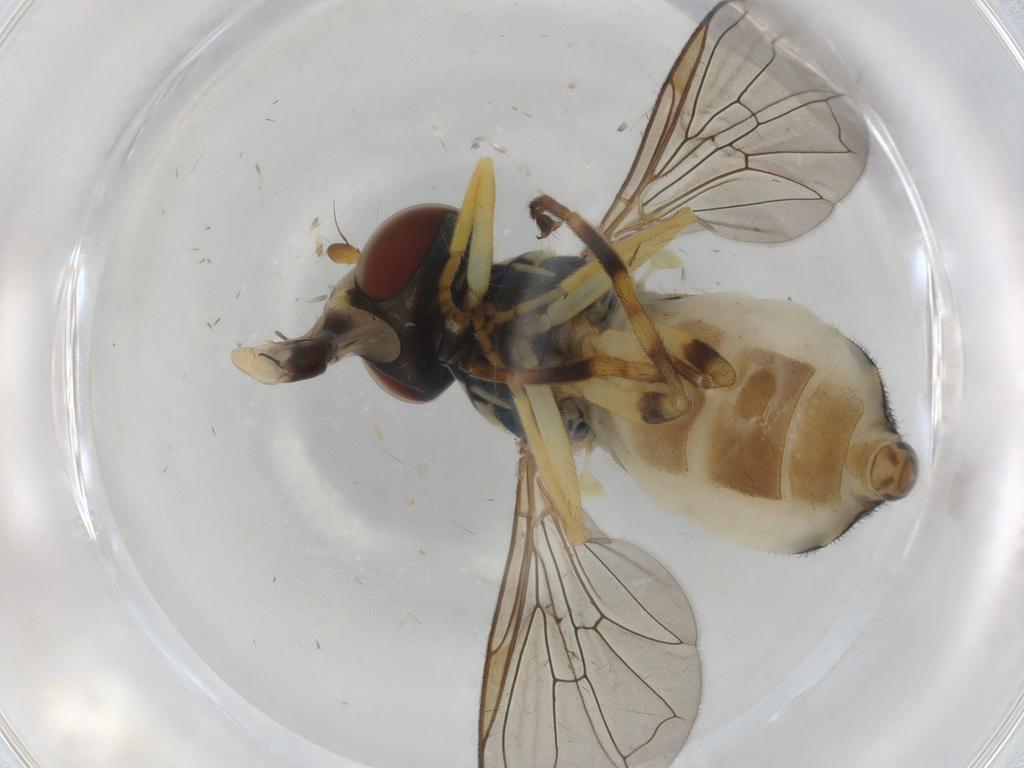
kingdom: Animalia
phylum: Arthropoda
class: Insecta
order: Diptera
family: Syrphidae
